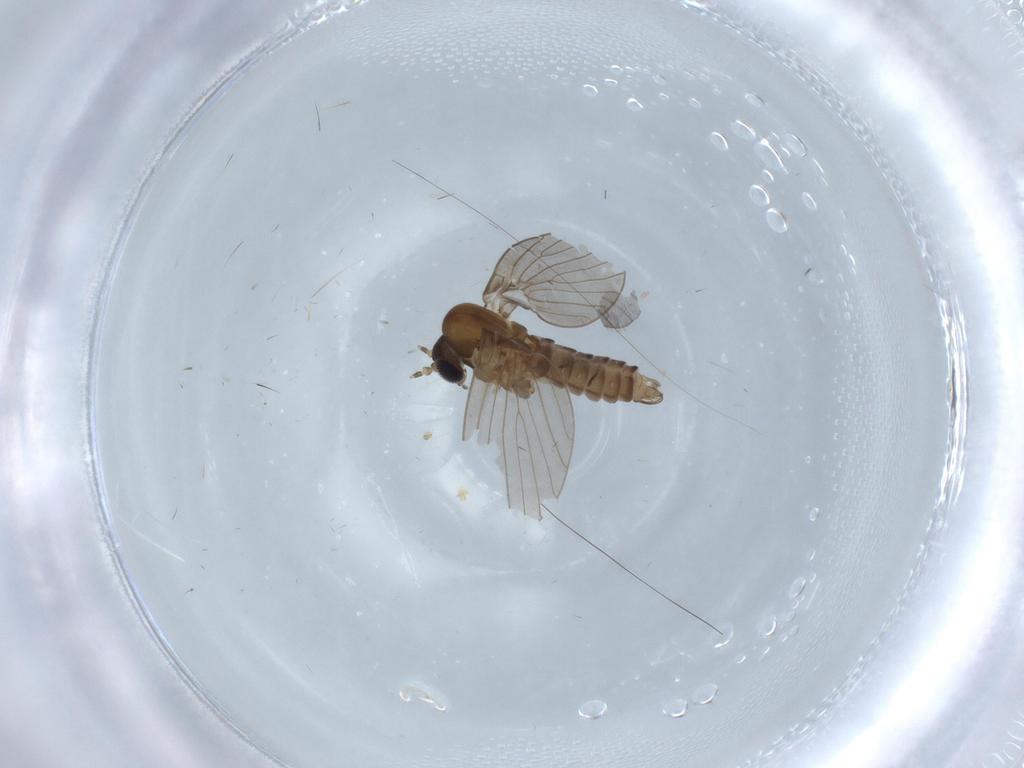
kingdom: Animalia
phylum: Arthropoda
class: Insecta
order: Diptera
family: Sciaridae
